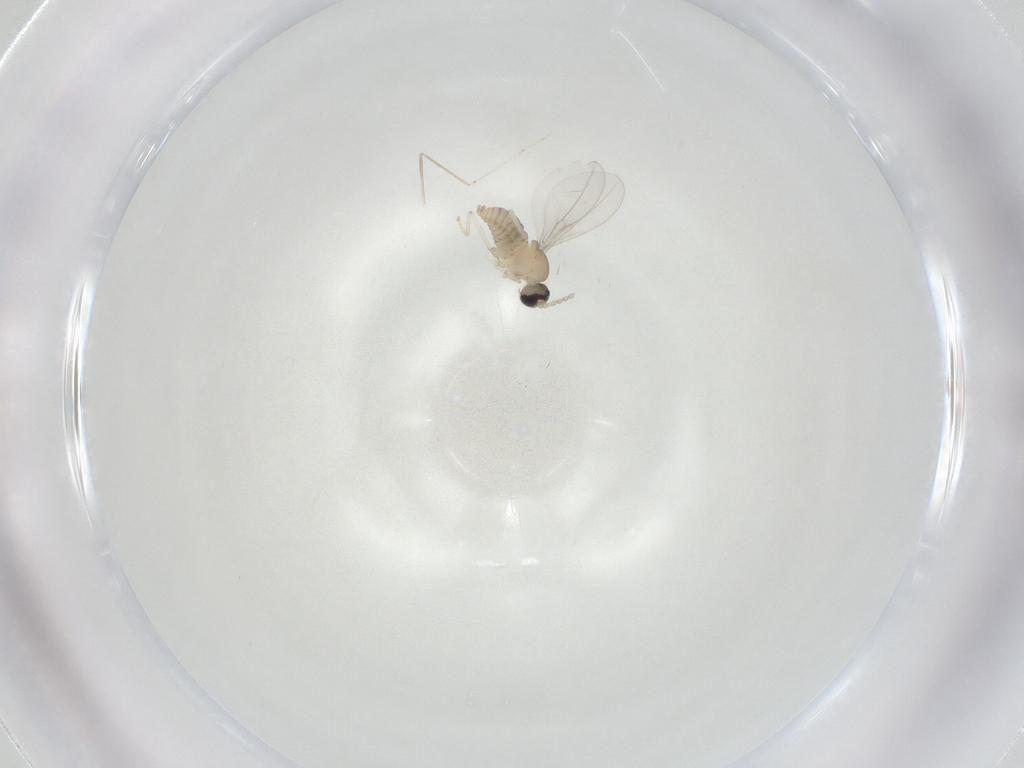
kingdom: Animalia
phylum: Arthropoda
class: Insecta
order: Diptera
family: Cecidomyiidae
